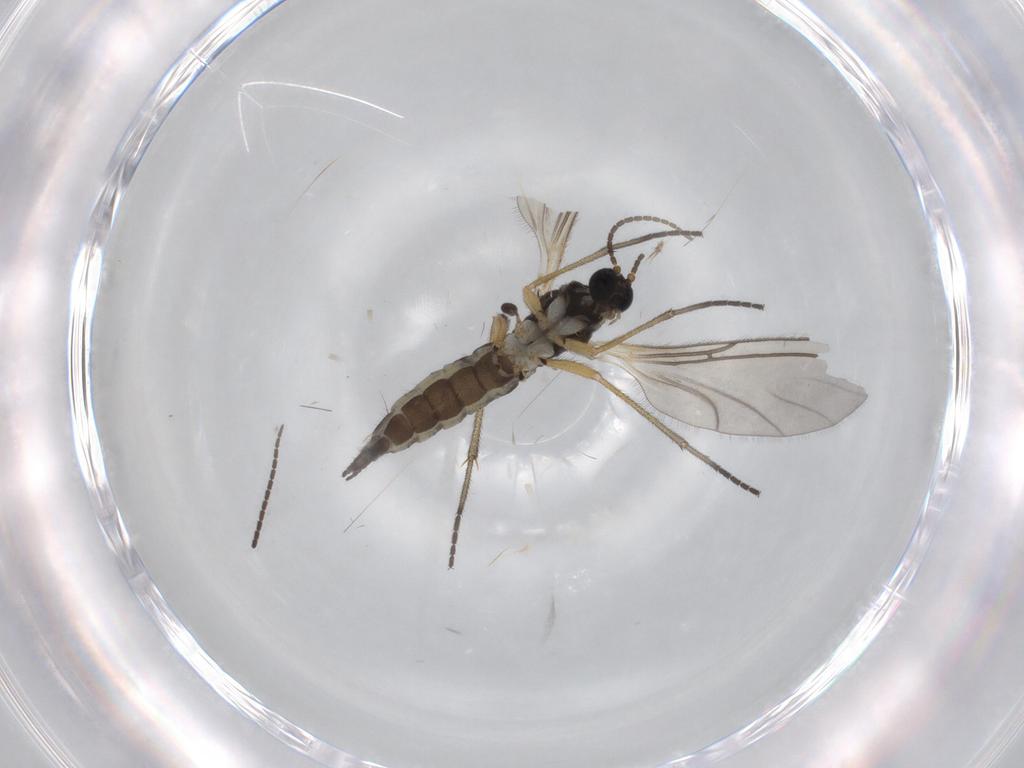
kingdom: Animalia
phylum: Arthropoda
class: Insecta
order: Diptera
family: Sciaridae
